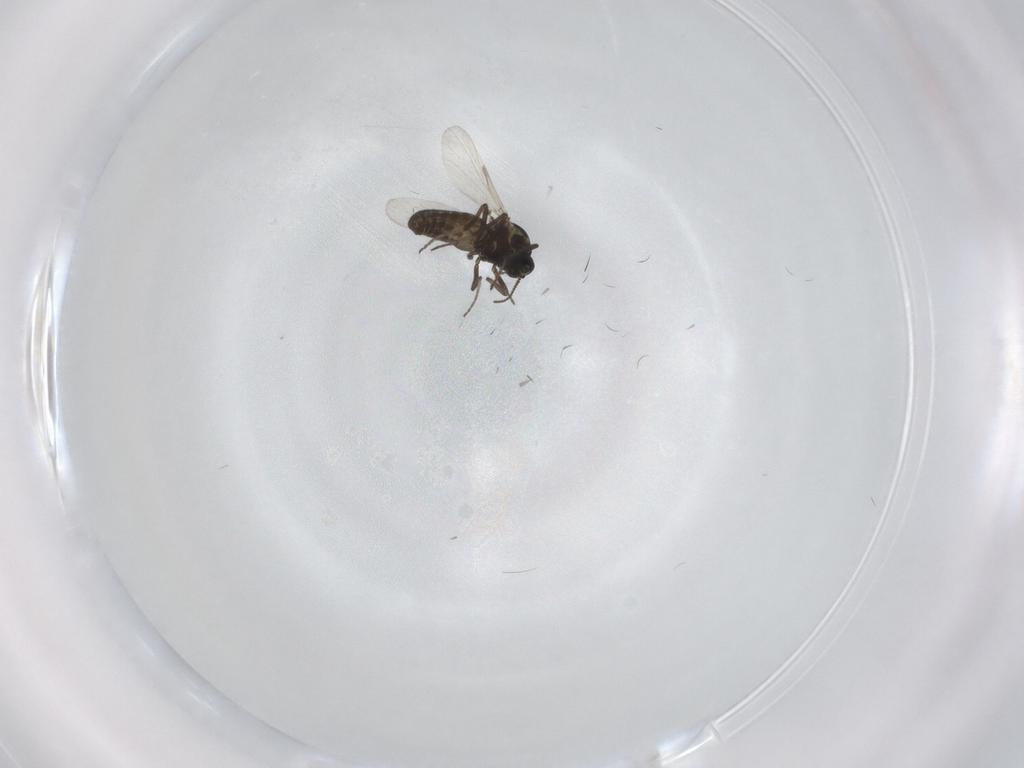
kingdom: Animalia
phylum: Arthropoda
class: Insecta
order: Diptera
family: Ceratopogonidae
